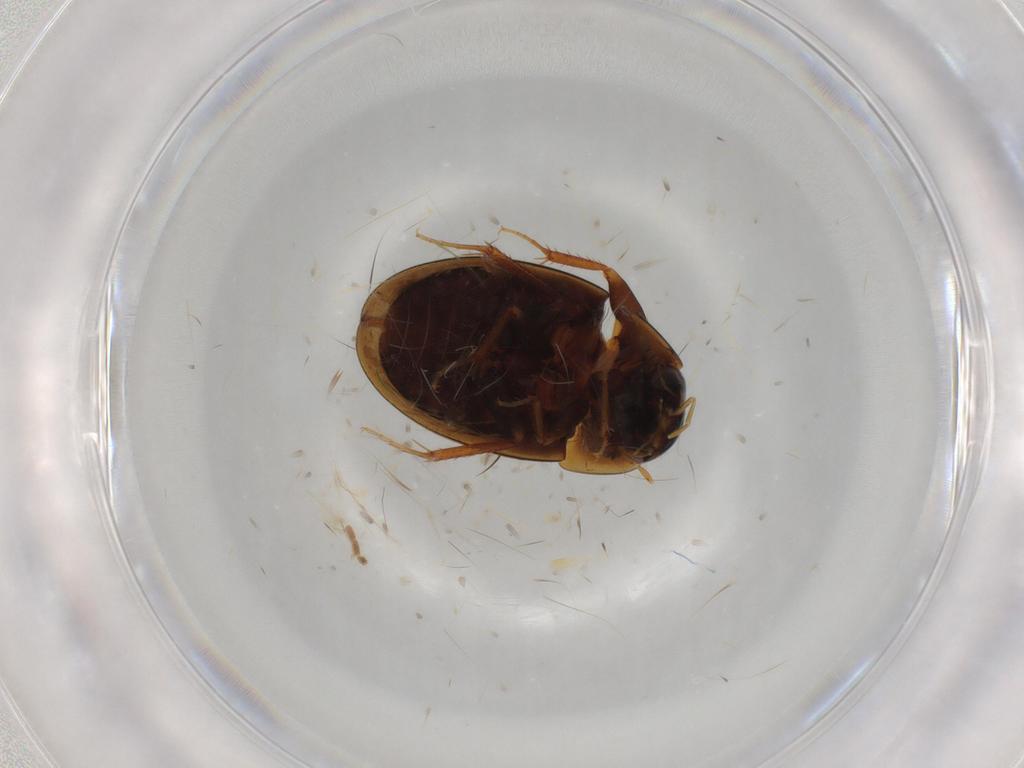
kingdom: Animalia
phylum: Arthropoda
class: Insecta
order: Coleoptera
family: Hydrophilidae
